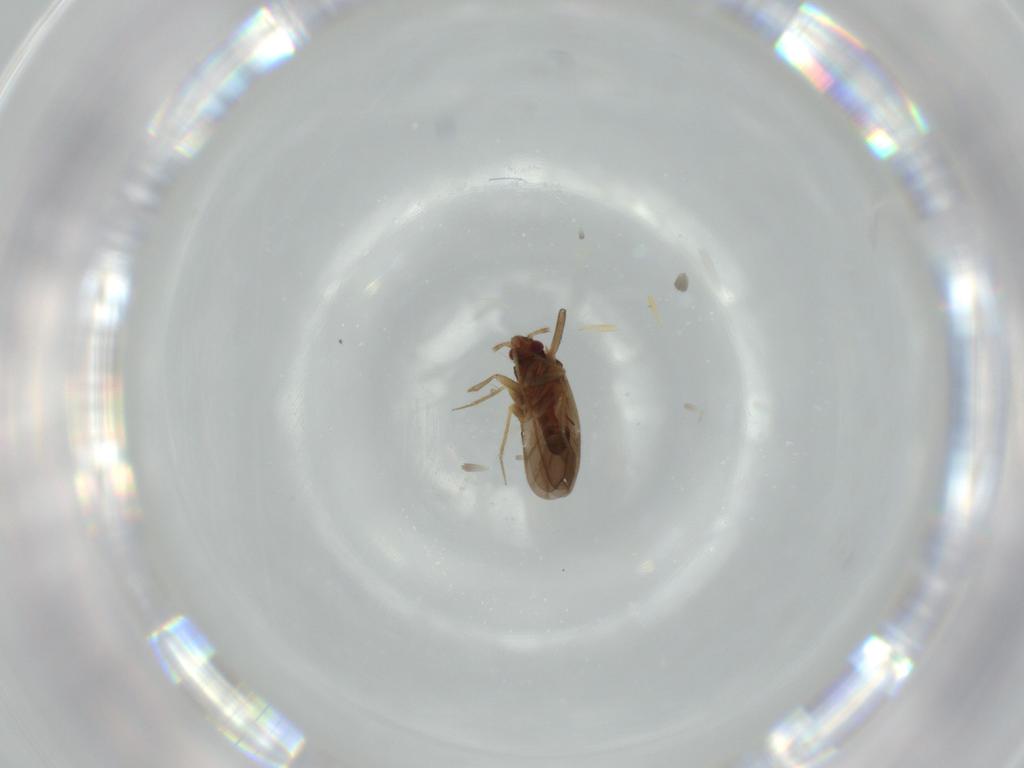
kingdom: Animalia
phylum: Arthropoda
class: Insecta
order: Hemiptera
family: Ceratocombidae
